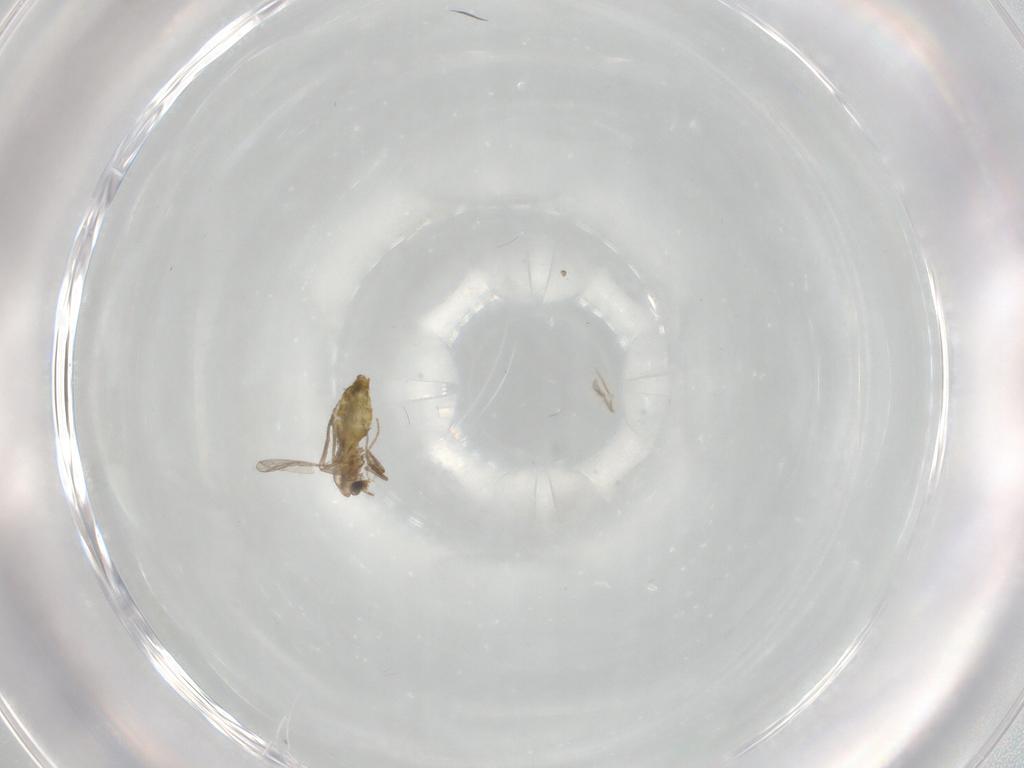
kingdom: Animalia
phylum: Arthropoda
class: Insecta
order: Diptera
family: Chironomidae
